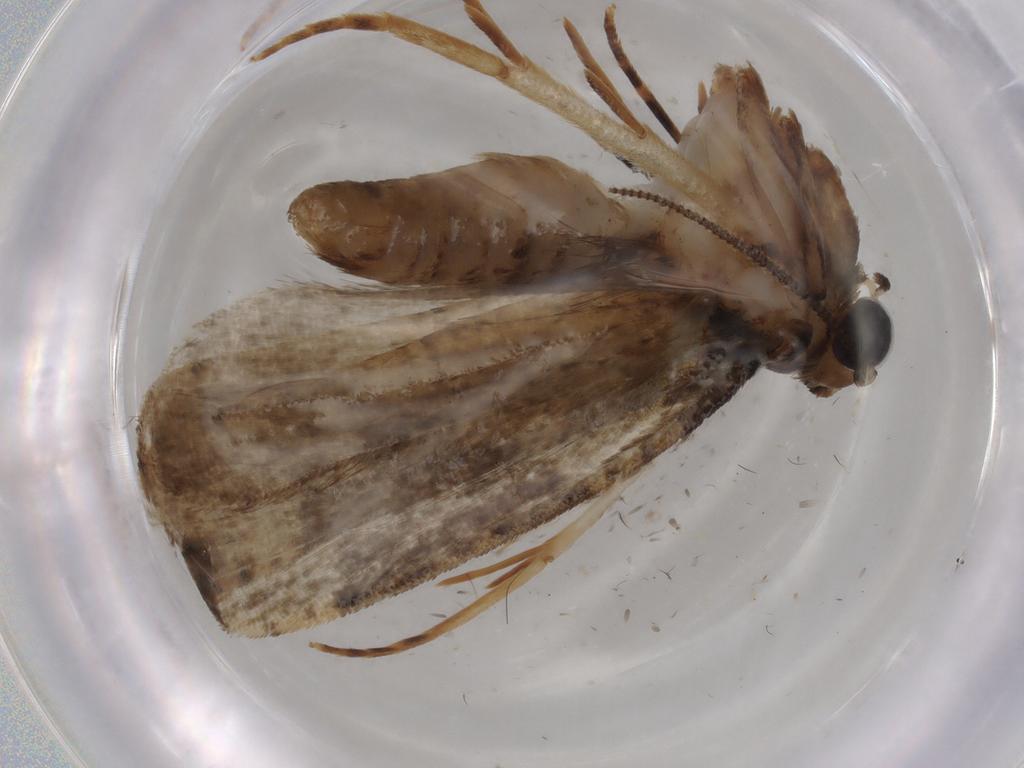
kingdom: Animalia
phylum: Arthropoda
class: Insecta
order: Lepidoptera
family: Tineidae
